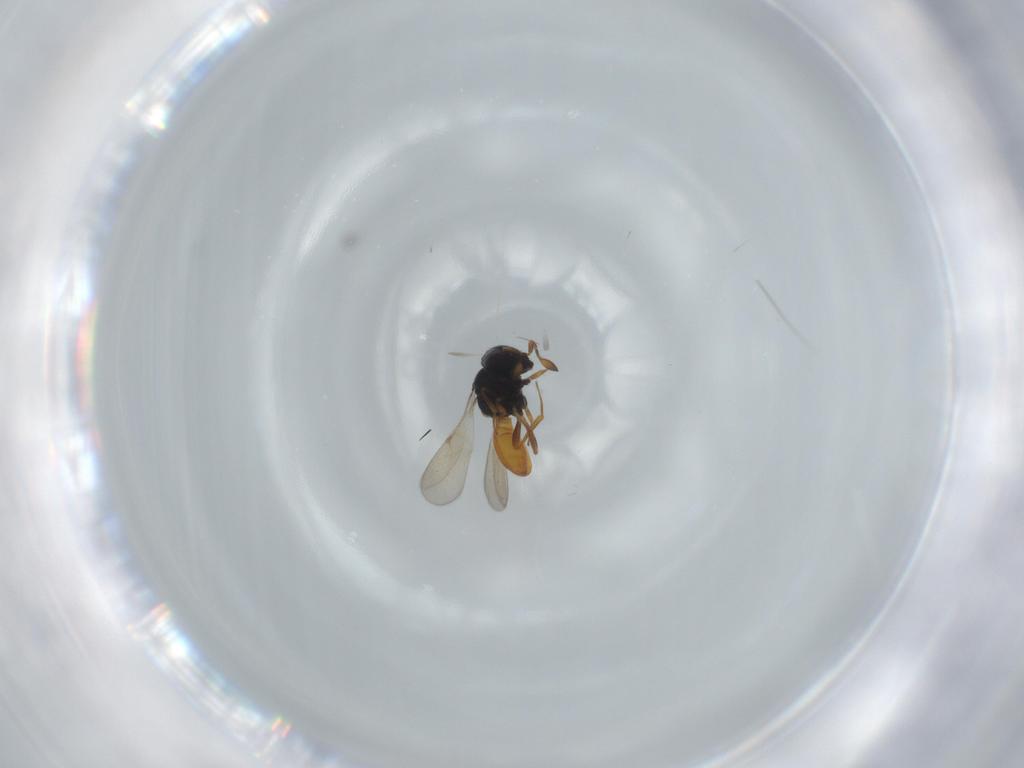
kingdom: Animalia
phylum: Arthropoda
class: Insecta
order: Hymenoptera
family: Scelionidae
